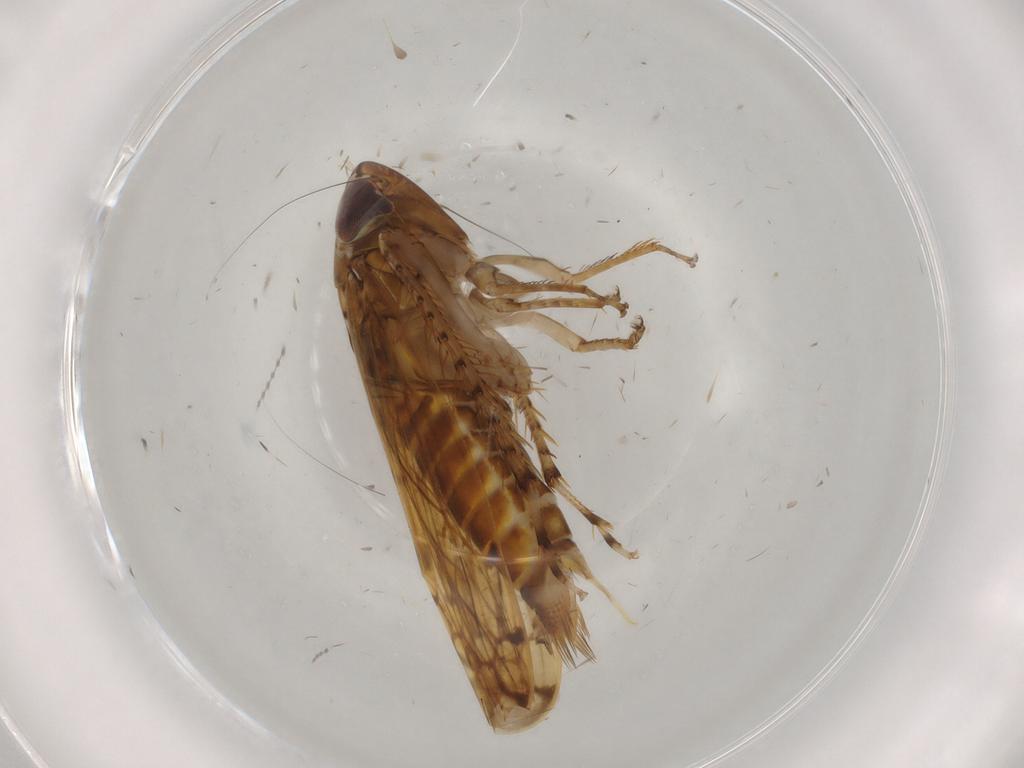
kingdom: Animalia
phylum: Arthropoda
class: Insecta
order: Hemiptera
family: Cicadellidae
